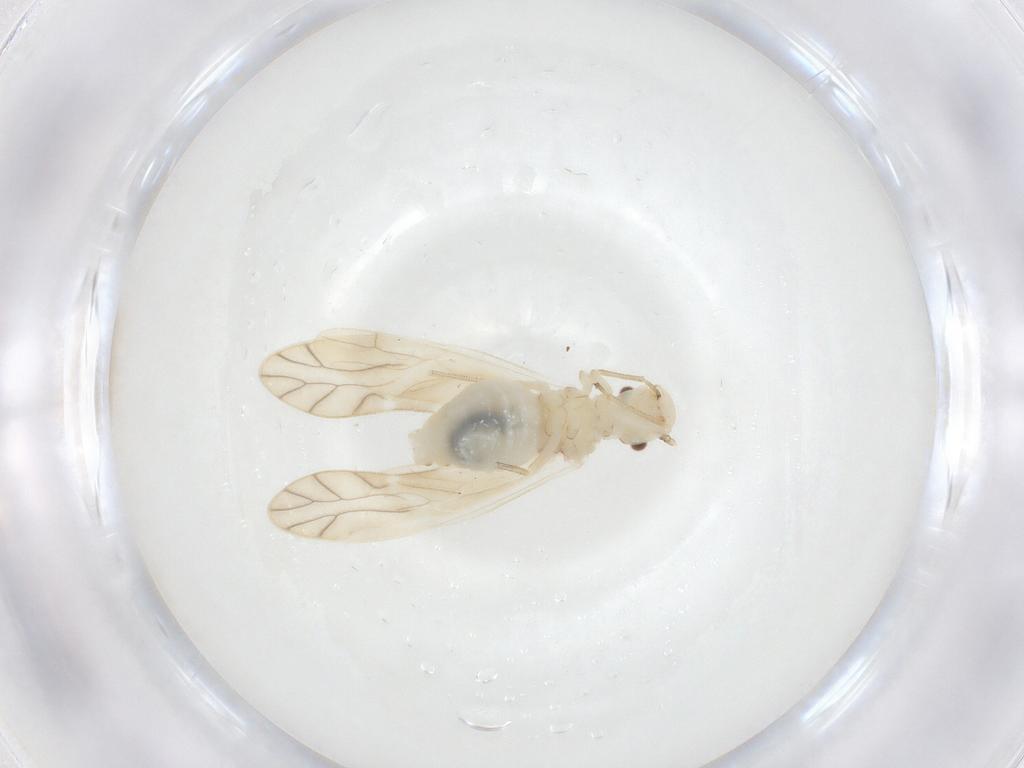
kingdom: Animalia
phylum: Arthropoda
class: Insecta
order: Psocodea
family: Caeciliusidae
